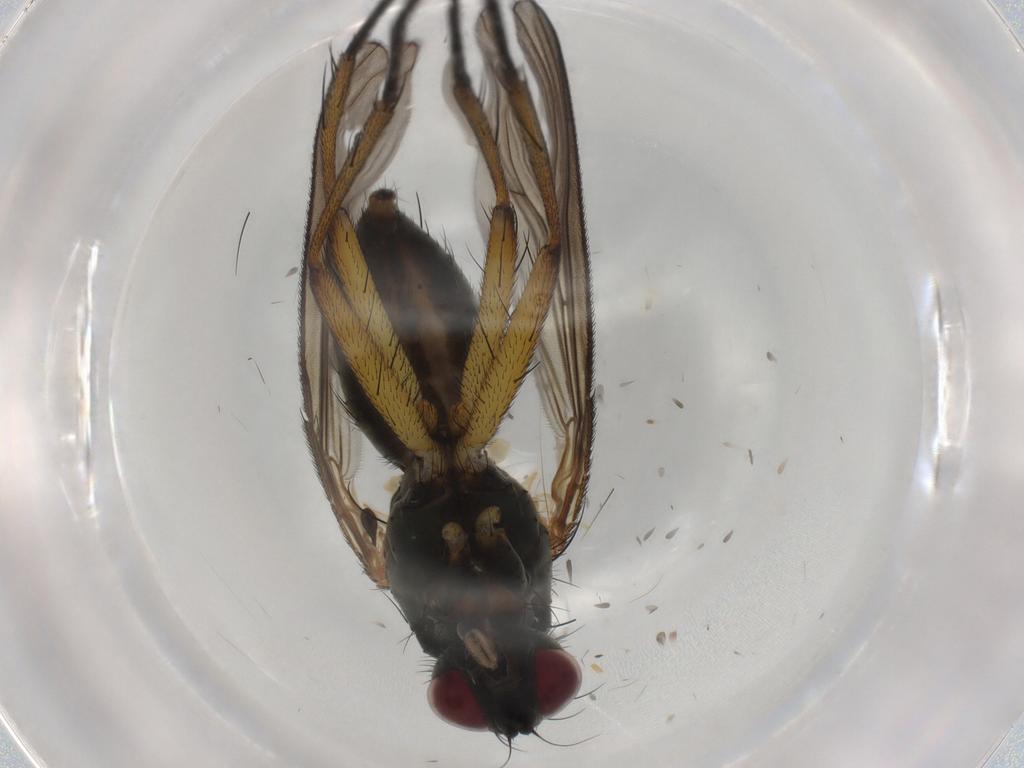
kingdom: Animalia
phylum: Arthropoda
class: Insecta
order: Diptera
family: Muscidae
